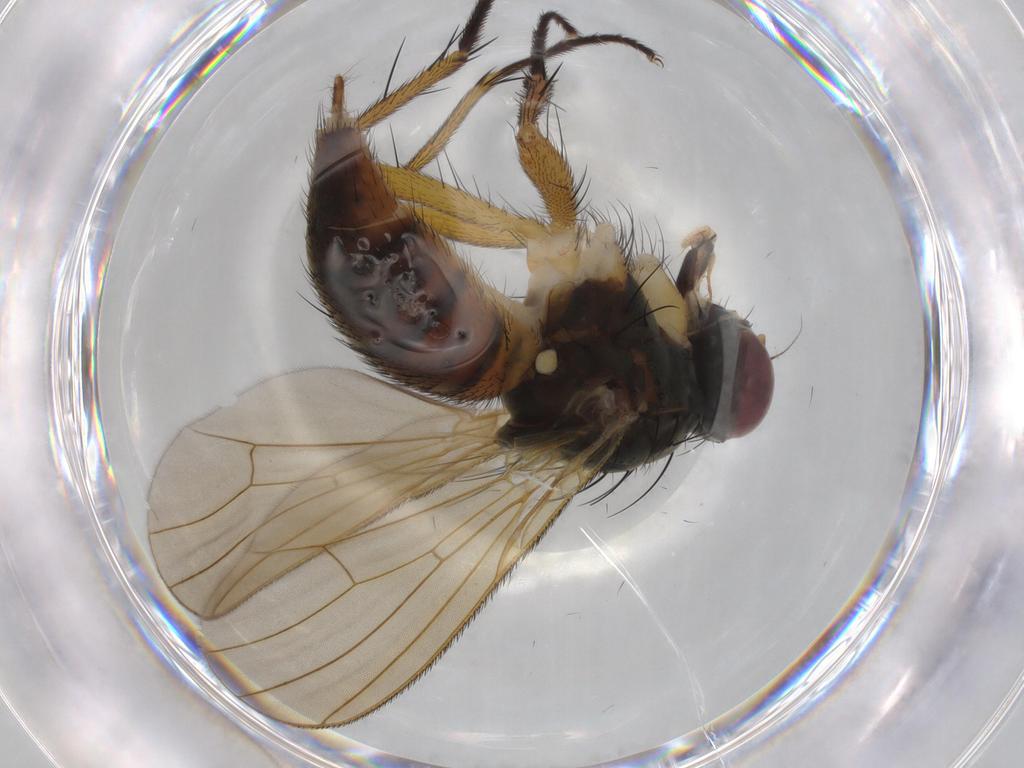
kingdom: Animalia
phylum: Arthropoda
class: Insecta
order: Diptera
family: Muscidae
